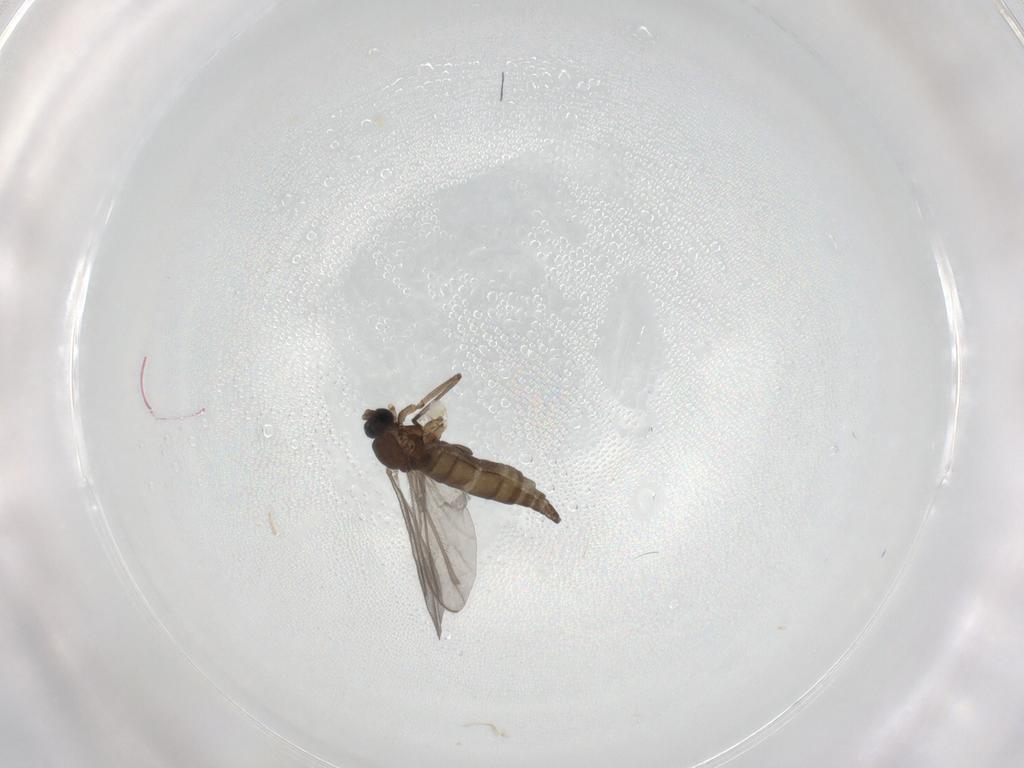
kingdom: Animalia
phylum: Arthropoda
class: Insecta
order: Diptera
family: Sciaridae
